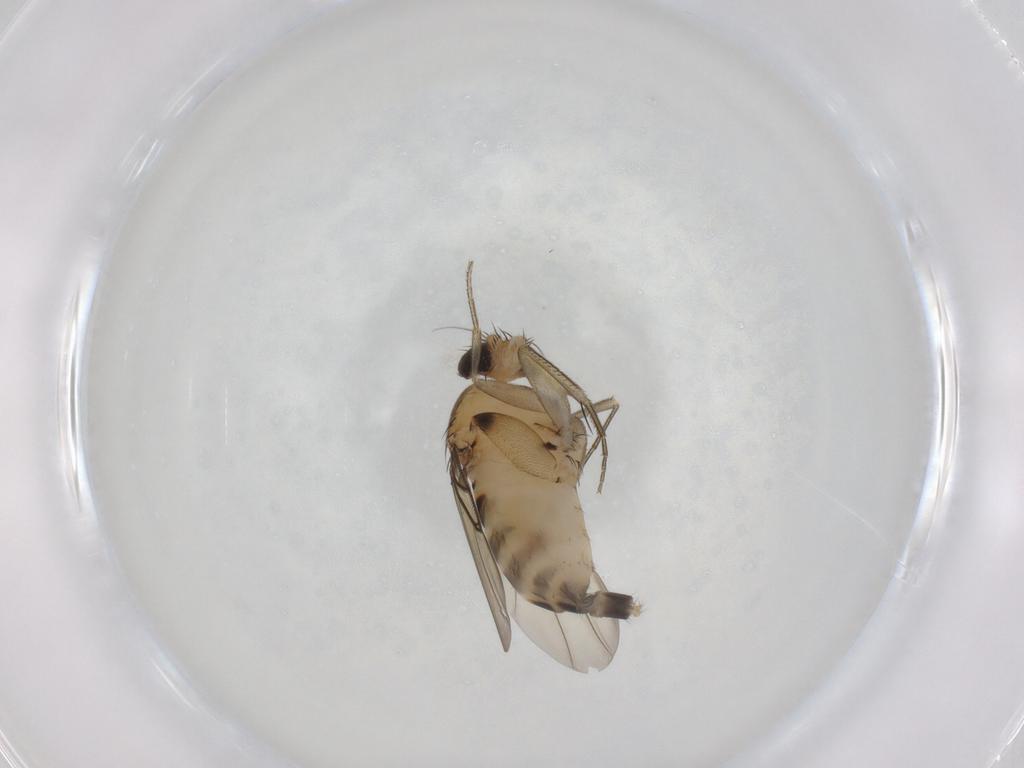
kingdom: Animalia
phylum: Arthropoda
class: Insecta
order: Diptera
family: Phoridae
